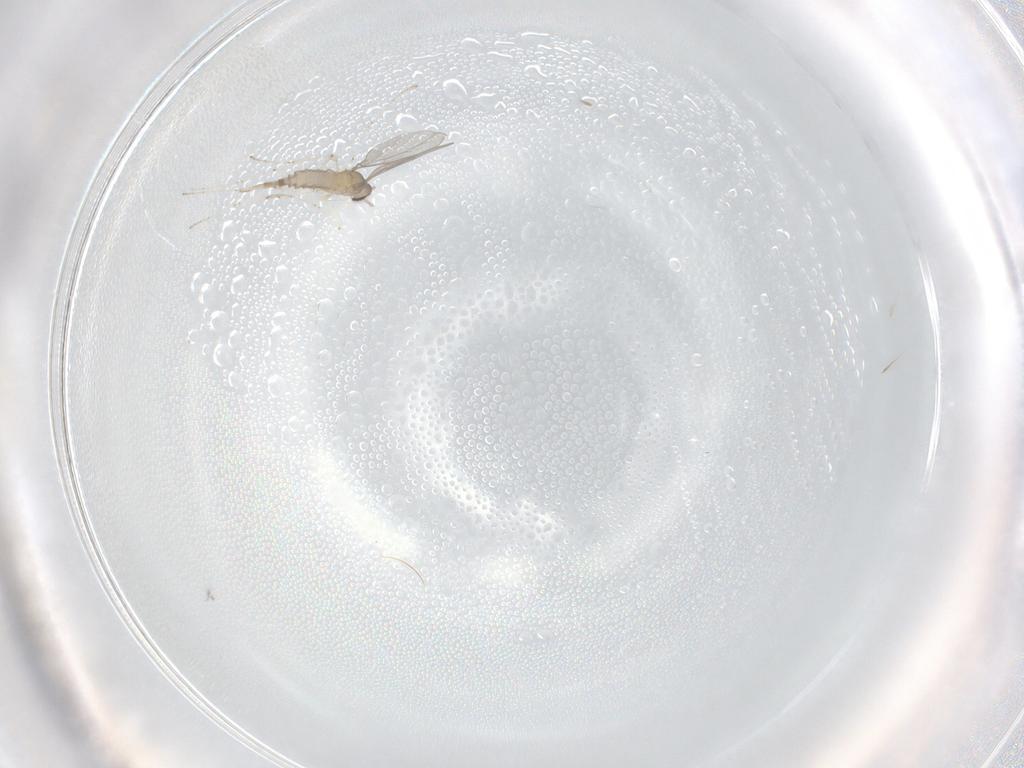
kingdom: Animalia
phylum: Arthropoda
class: Insecta
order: Diptera
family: Cecidomyiidae
